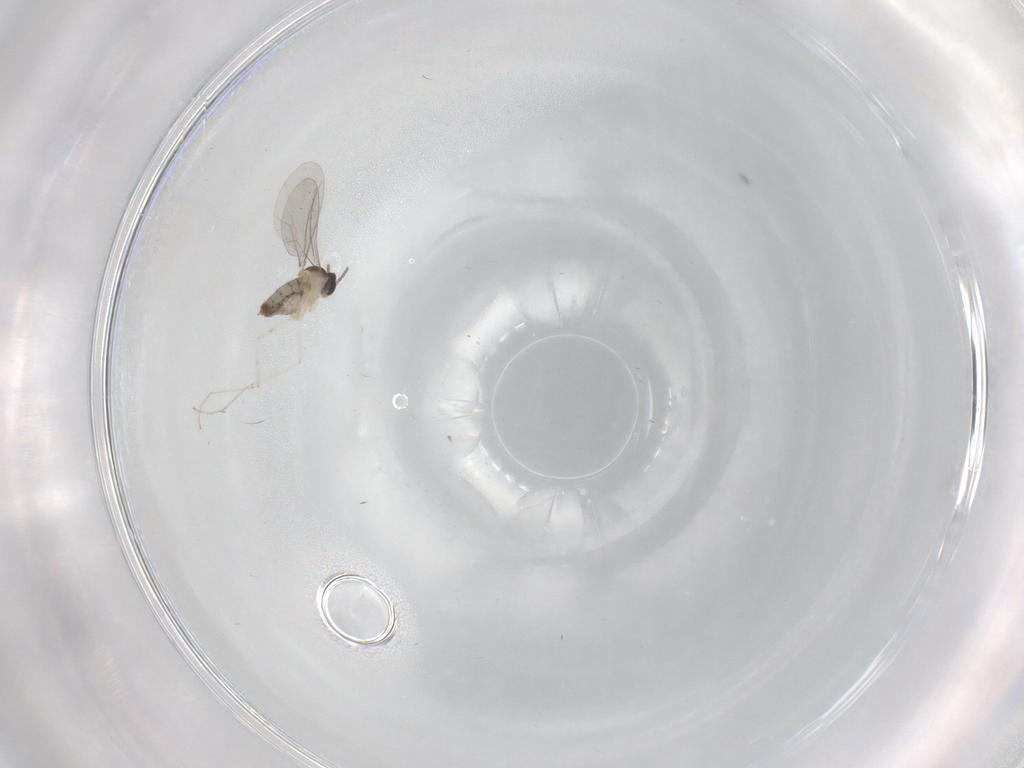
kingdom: Animalia
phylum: Arthropoda
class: Insecta
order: Diptera
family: Cecidomyiidae
